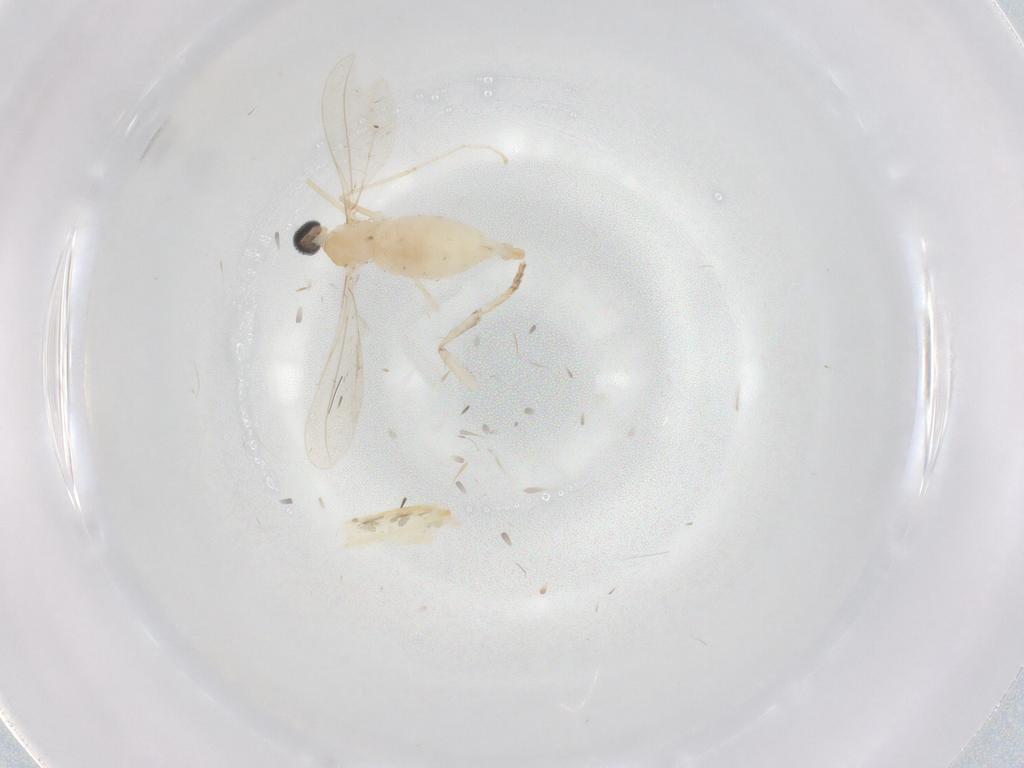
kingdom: Animalia
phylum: Arthropoda
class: Insecta
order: Diptera
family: Cecidomyiidae
